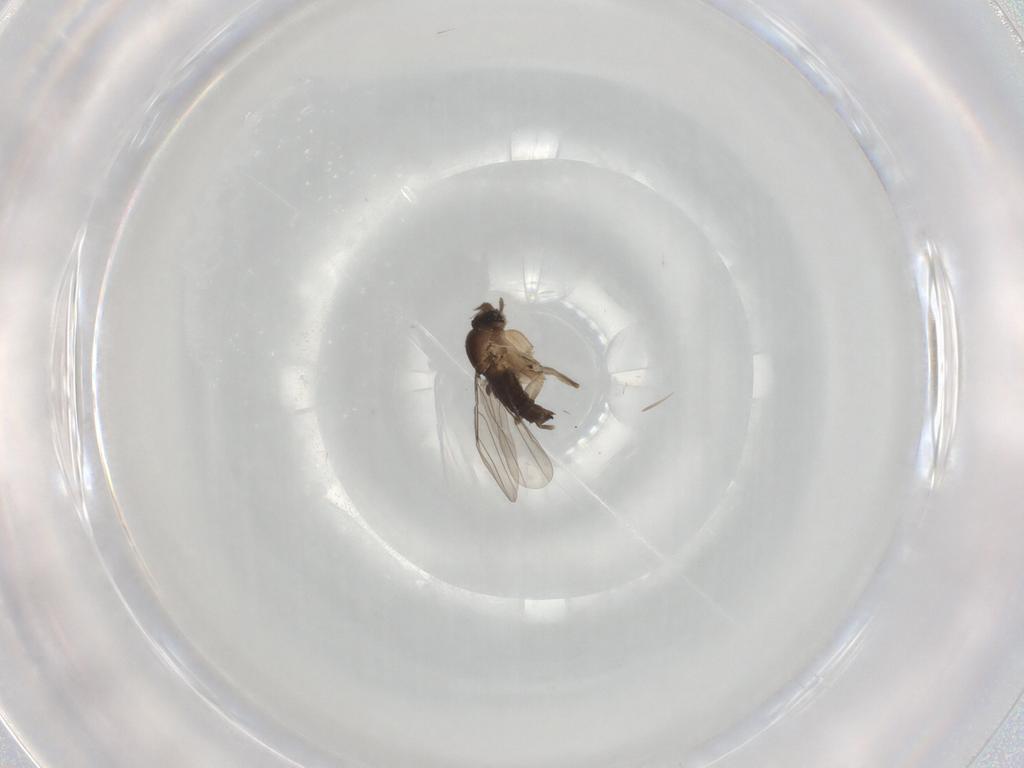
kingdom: Animalia
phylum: Arthropoda
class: Insecta
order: Diptera
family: Phoridae
